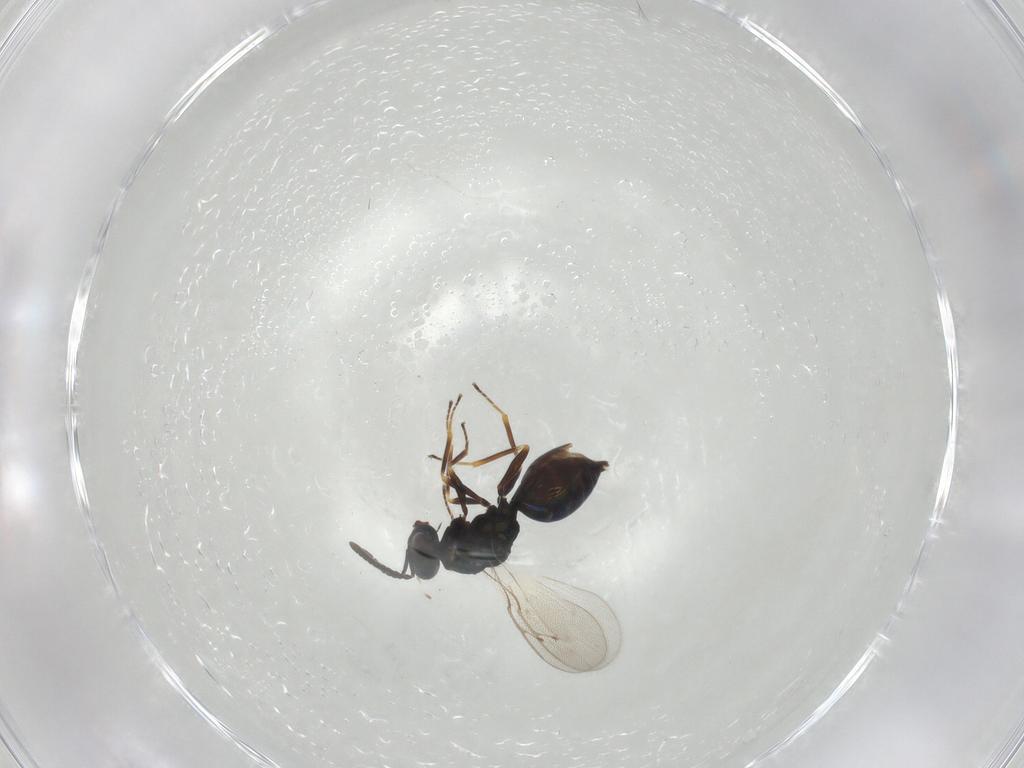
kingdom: Animalia
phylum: Arthropoda
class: Insecta
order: Hymenoptera
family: Pteromalidae
